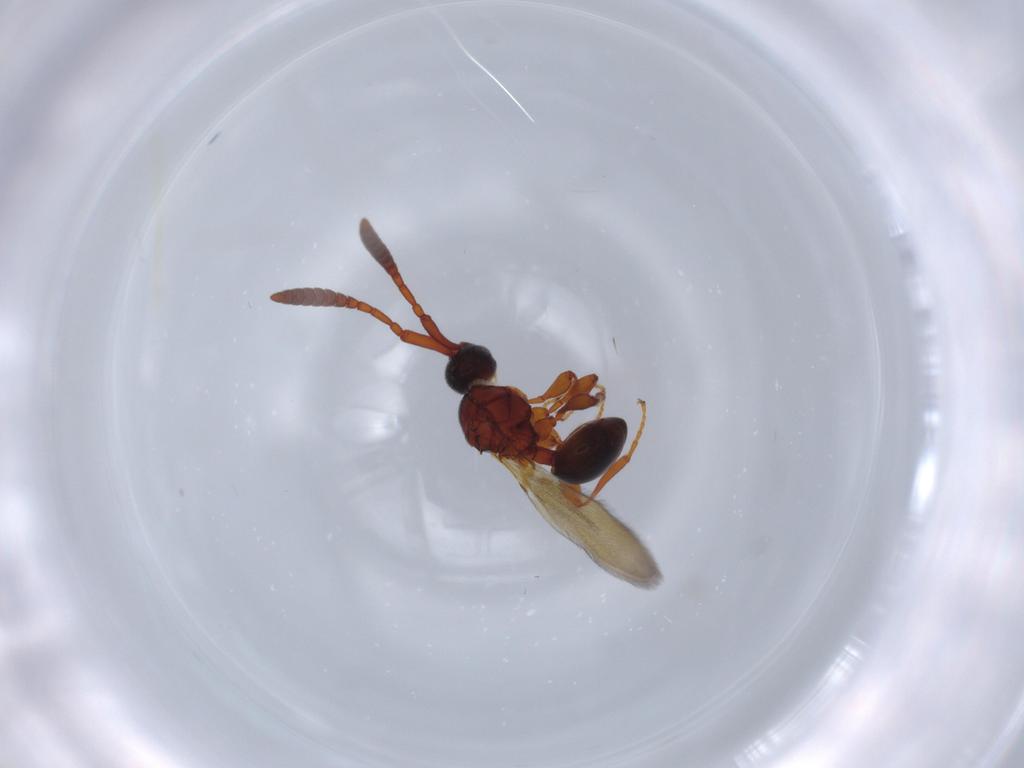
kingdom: Animalia
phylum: Arthropoda
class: Insecta
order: Hymenoptera
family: Diapriidae
